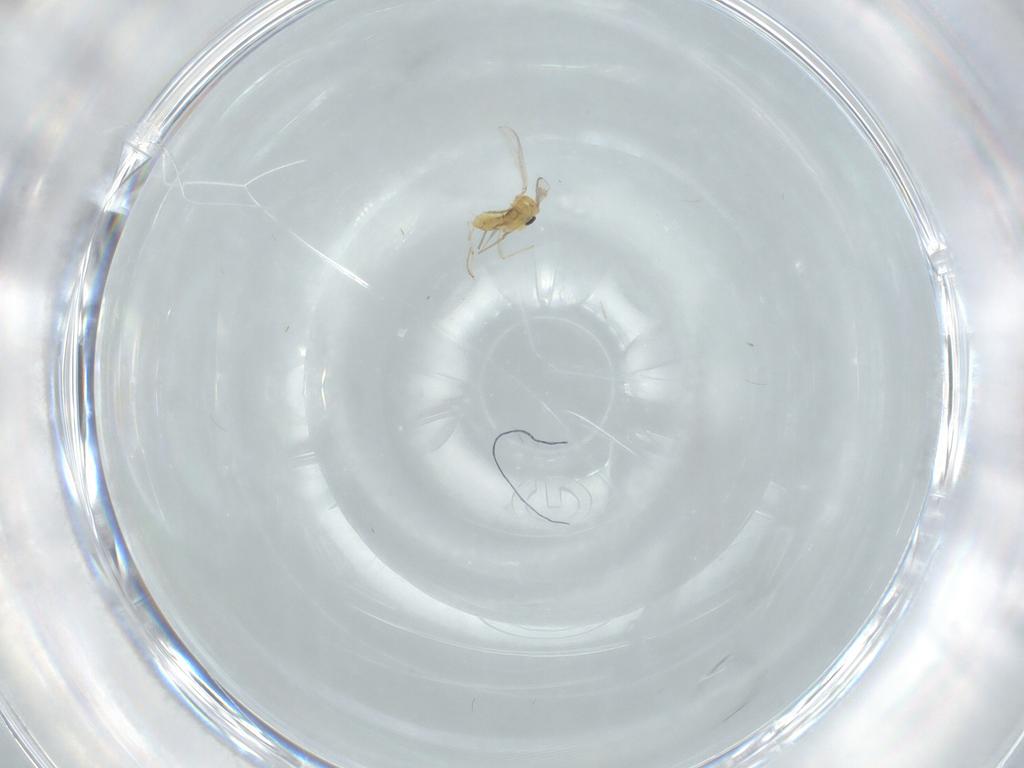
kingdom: Animalia
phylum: Arthropoda
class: Insecta
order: Diptera
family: Chironomidae
